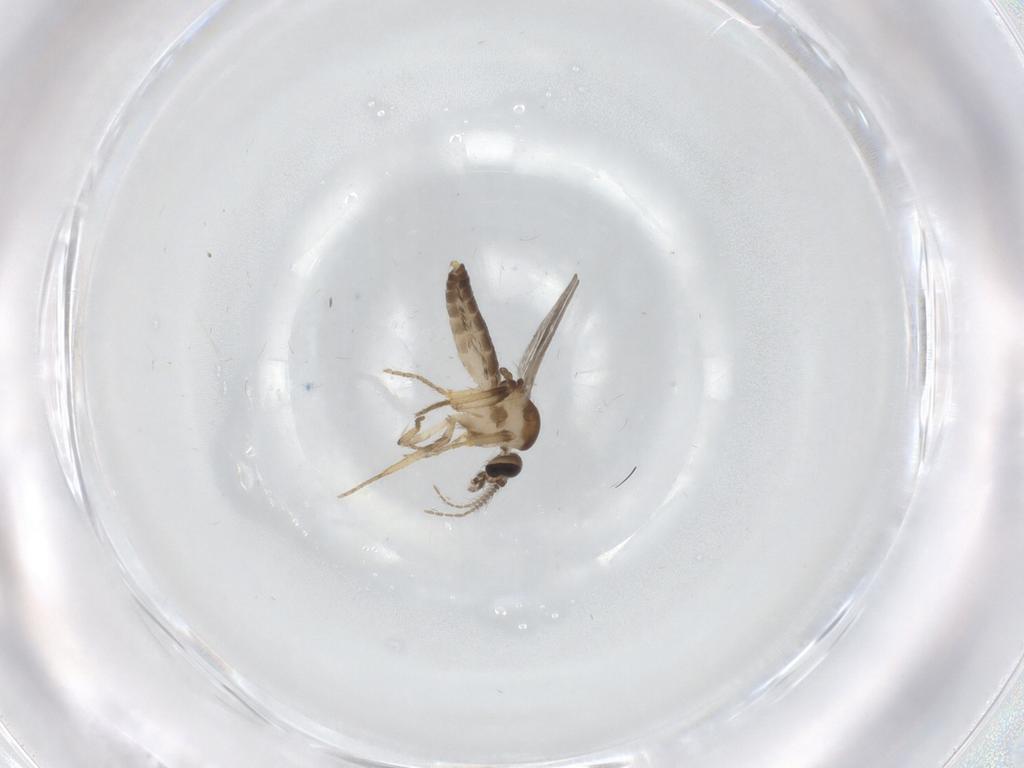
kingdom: Animalia
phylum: Arthropoda
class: Insecta
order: Diptera
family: Ceratopogonidae
